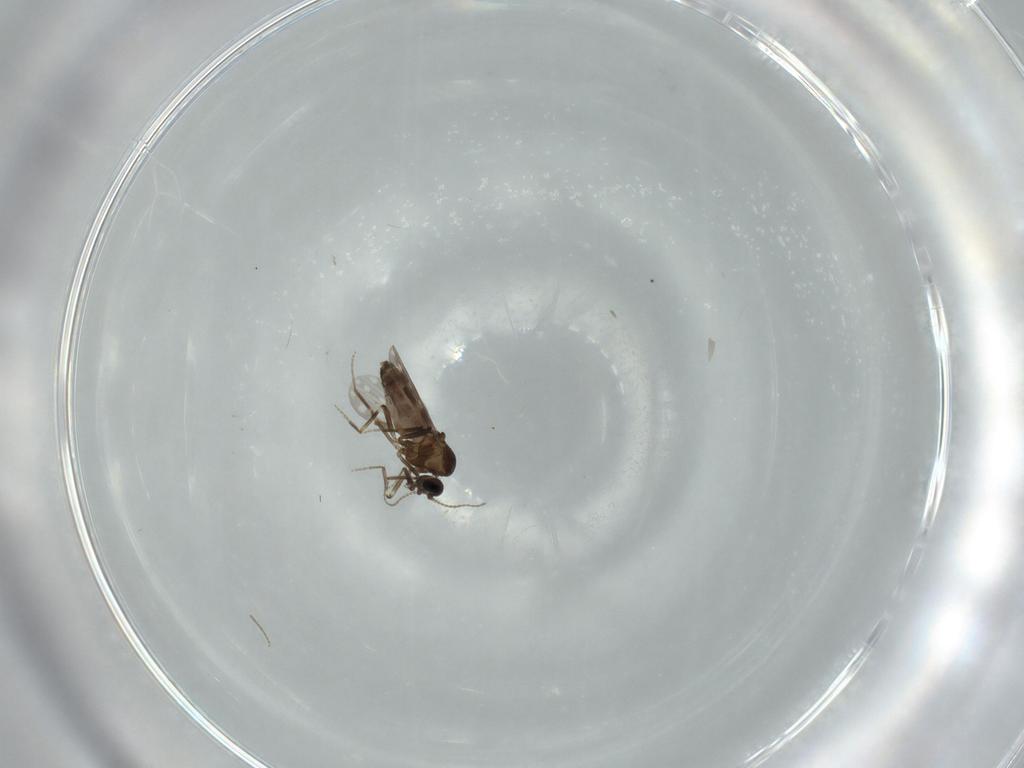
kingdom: Animalia
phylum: Arthropoda
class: Insecta
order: Diptera
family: Ceratopogonidae
